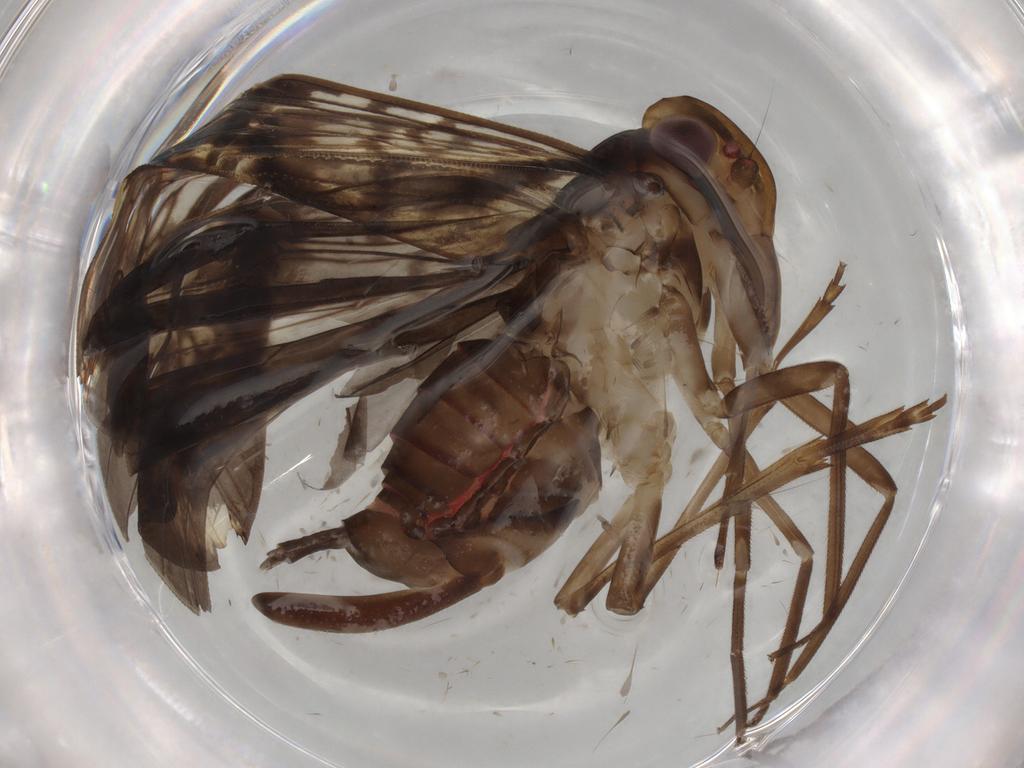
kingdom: Animalia
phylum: Arthropoda
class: Insecta
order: Hemiptera
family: Cixiidae
